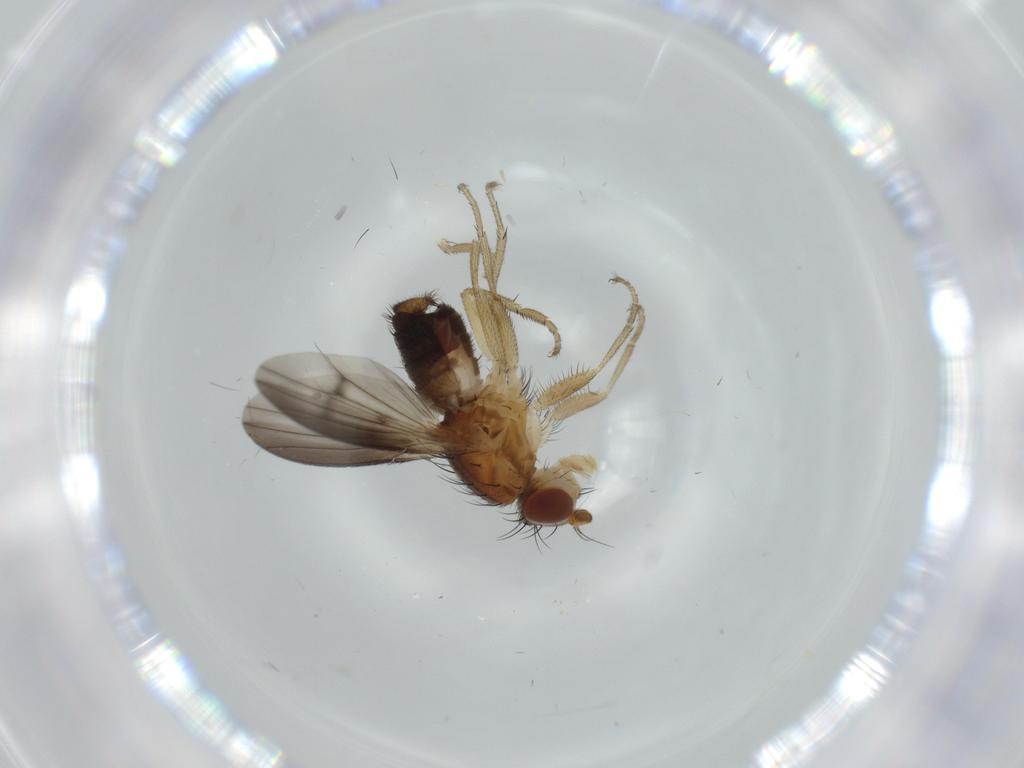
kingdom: Animalia
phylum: Arthropoda
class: Insecta
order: Diptera
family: Heleomyzidae
